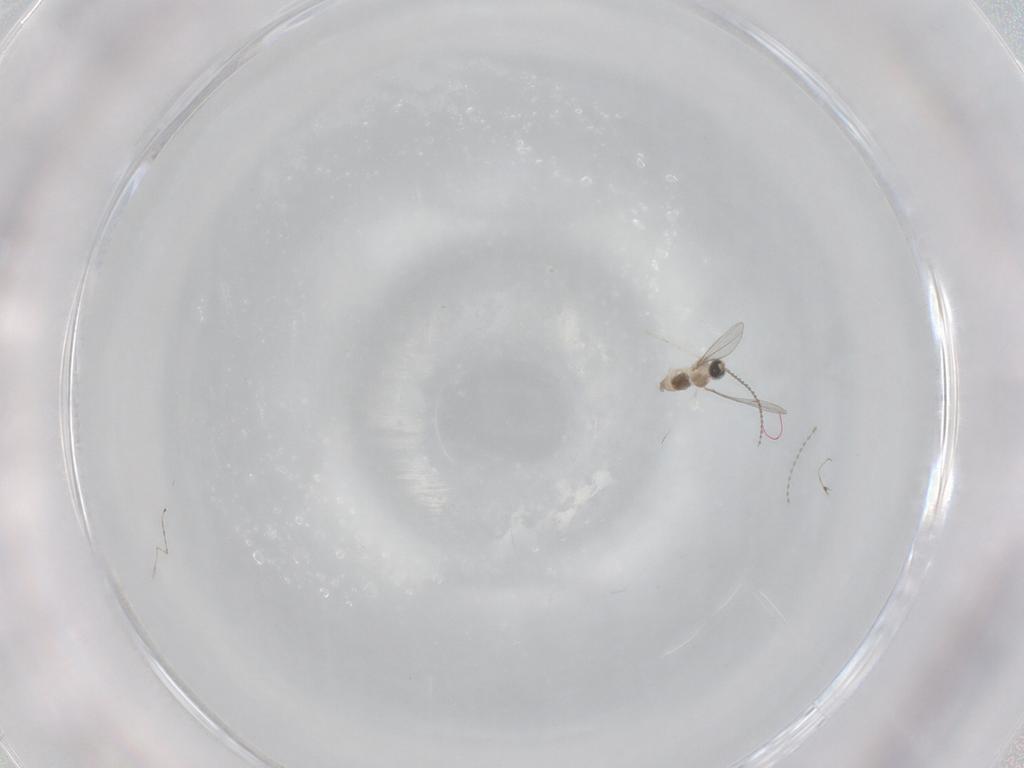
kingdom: Animalia
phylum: Arthropoda
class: Insecta
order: Diptera
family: Cecidomyiidae
